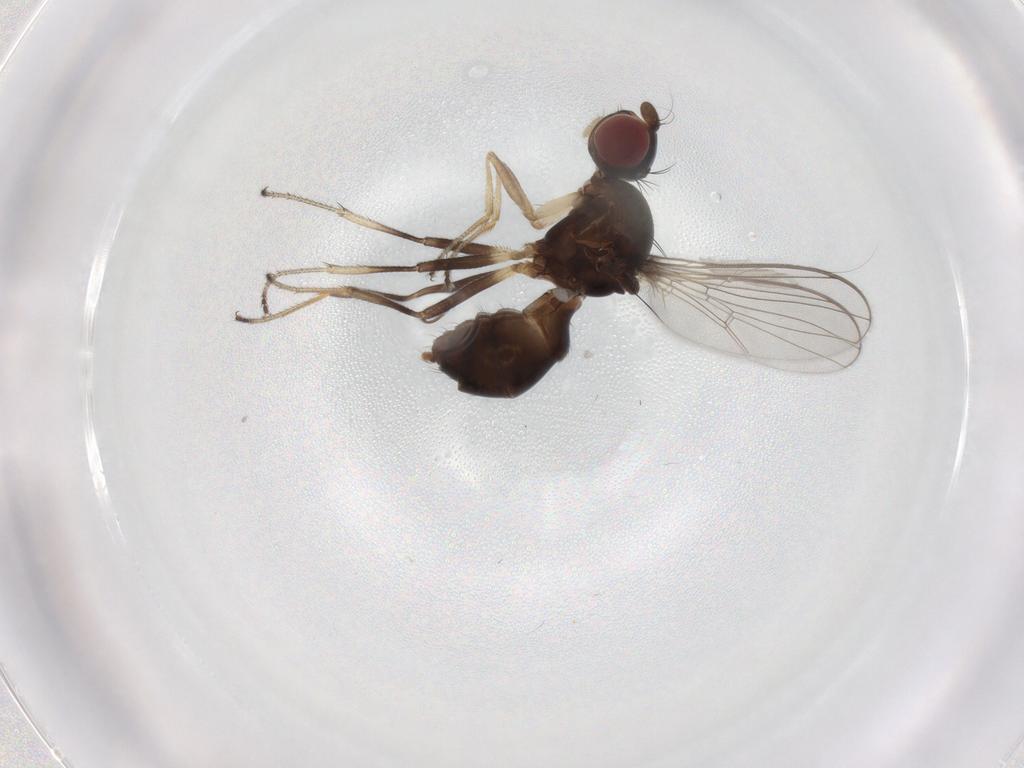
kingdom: Animalia
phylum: Arthropoda
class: Insecta
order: Diptera
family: Sepsidae
